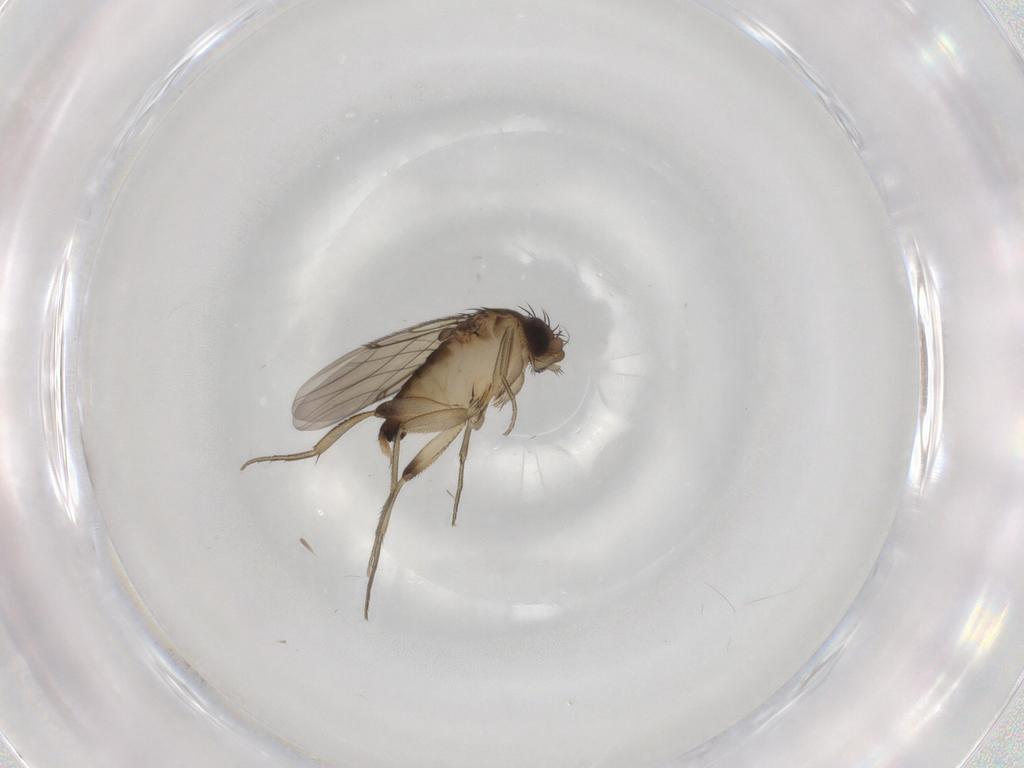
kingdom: Animalia
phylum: Arthropoda
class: Insecta
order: Diptera
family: Phoridae
